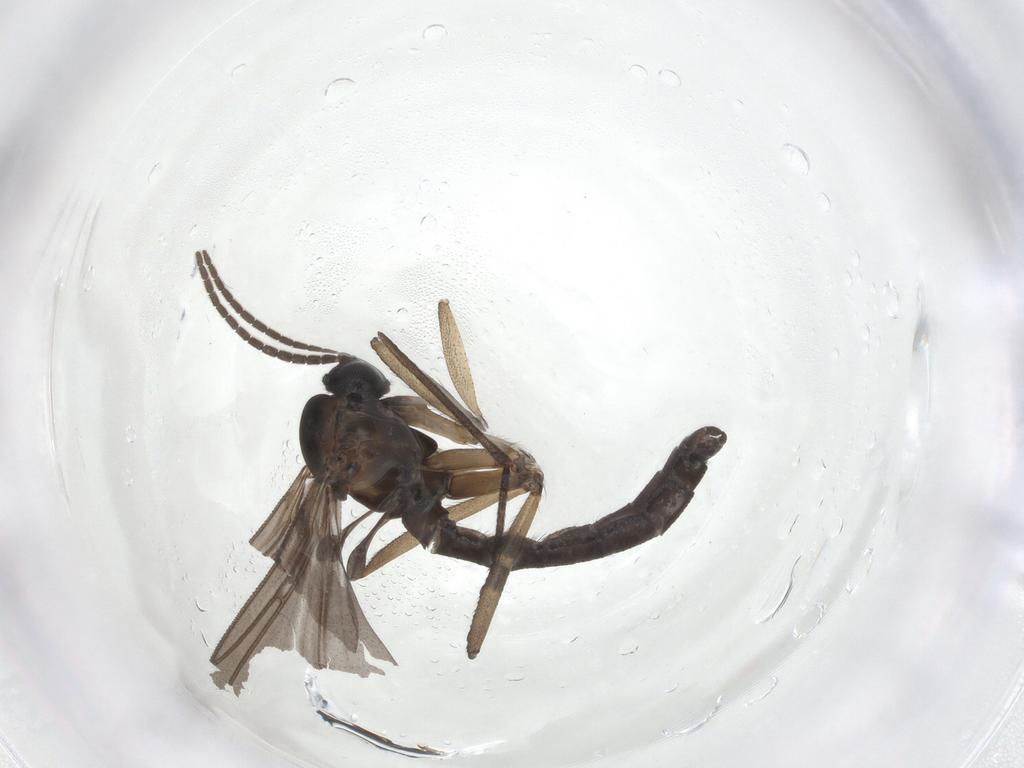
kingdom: Animalia
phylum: Arthropoda
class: Insecta
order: Diptera
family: Sciaridae
